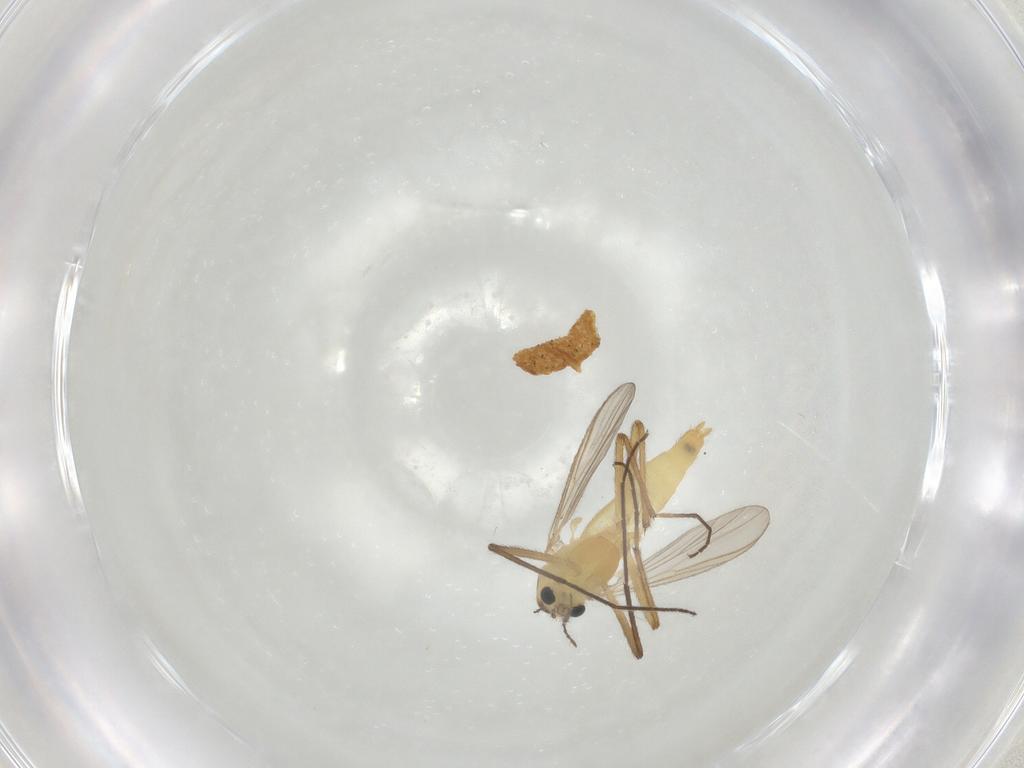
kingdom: Animalia
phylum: Arthropoda
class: Insecta
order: Diptera
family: Chironomidae
